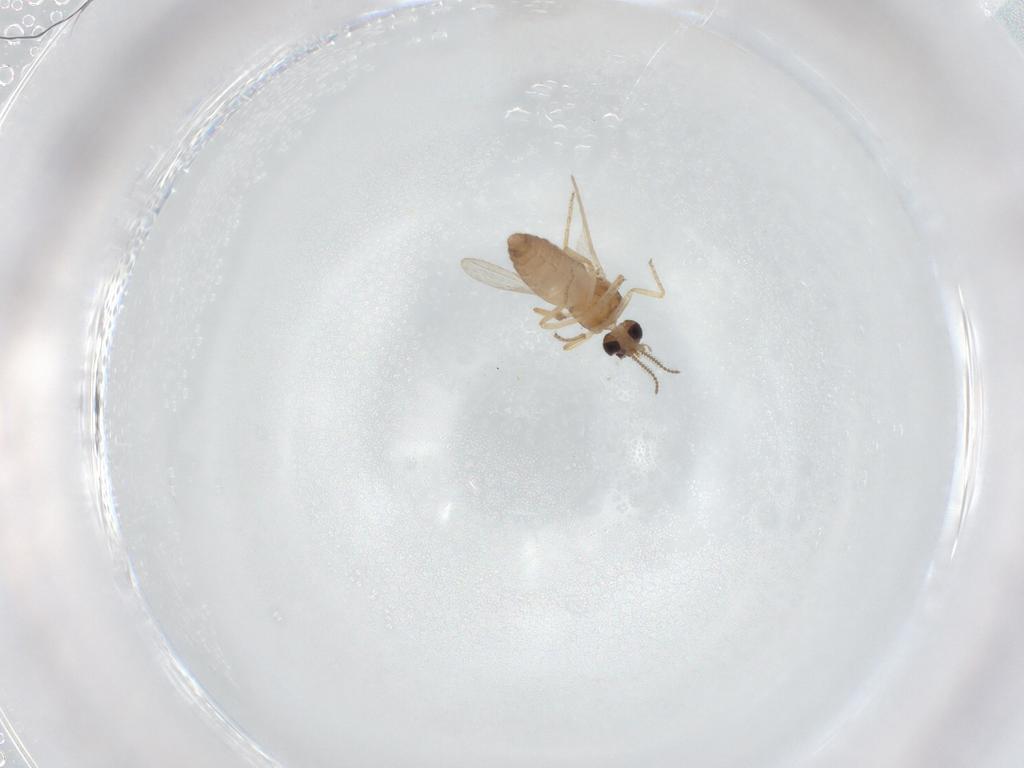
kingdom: Animalia
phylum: Arthropoda
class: Insecta
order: Diptera
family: Ceratopogonidae
